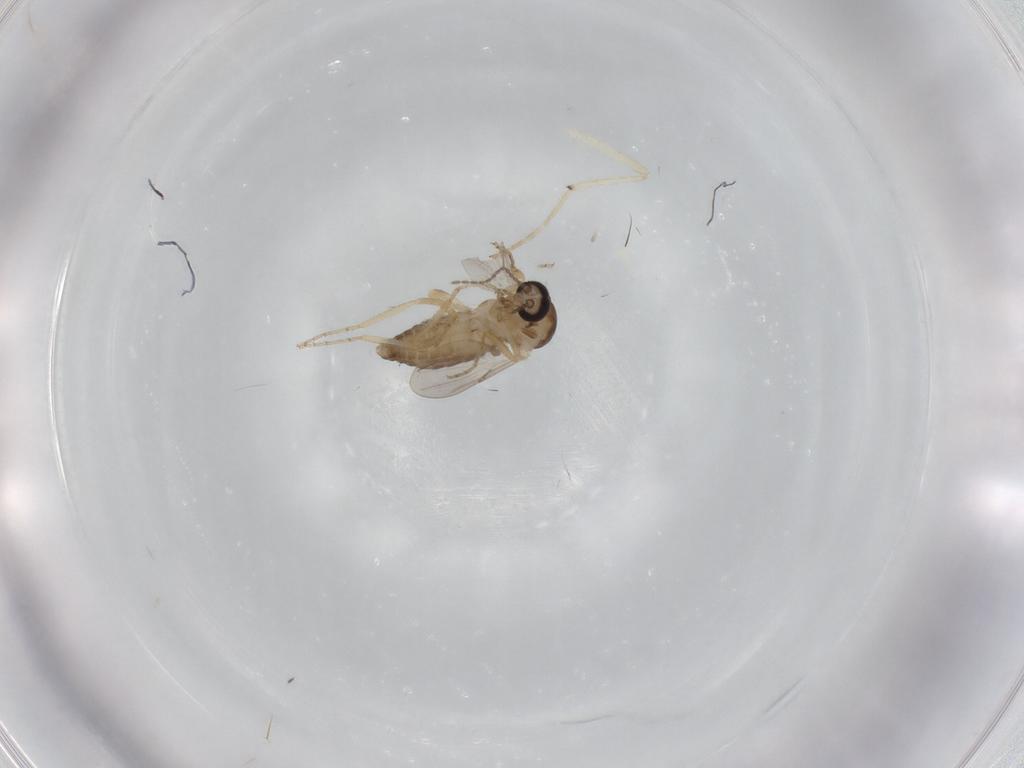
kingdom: Animalia
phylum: Arthropoda
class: Insecta
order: Diptera
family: Ceratopogonidae
